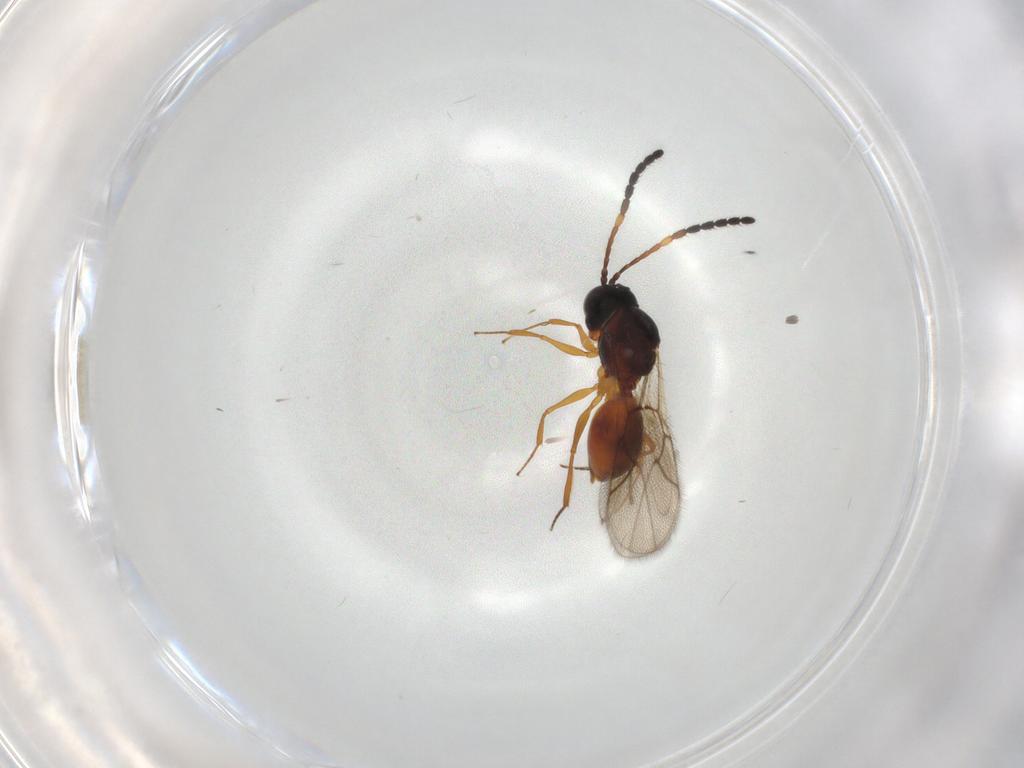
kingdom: Animalia
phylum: Arthropoda
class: Insecta
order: Hymenoptera
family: Figitidae
